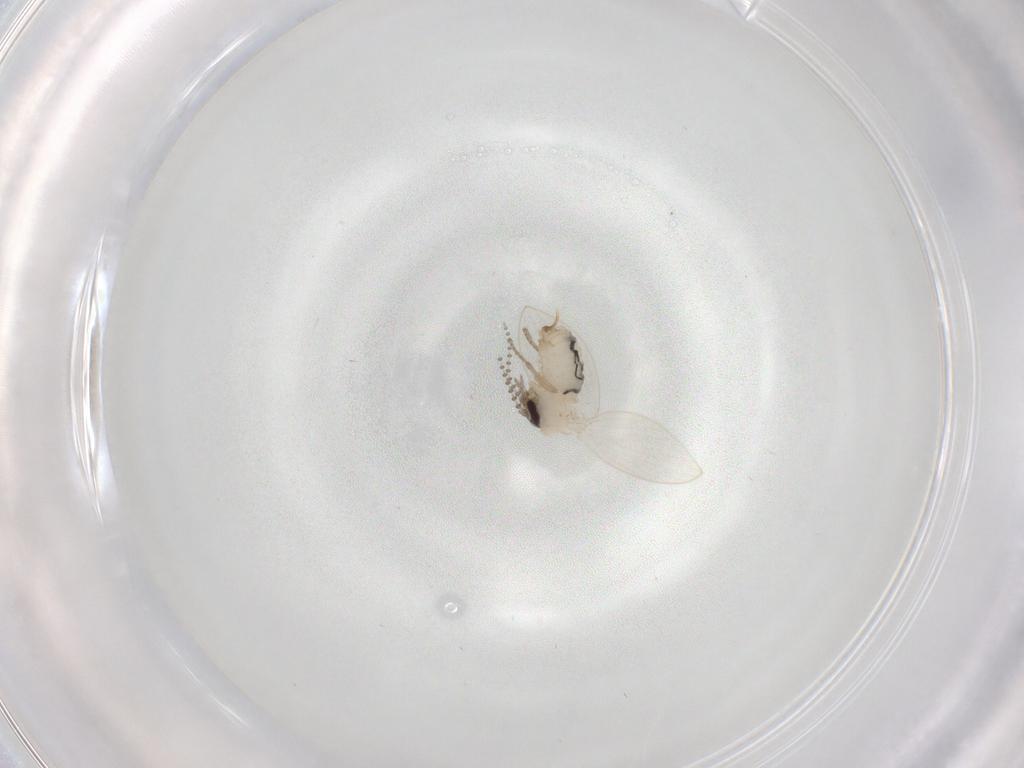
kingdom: Animalia
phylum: Arthropoda
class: Insecta
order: Diptera
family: Psychodidae
